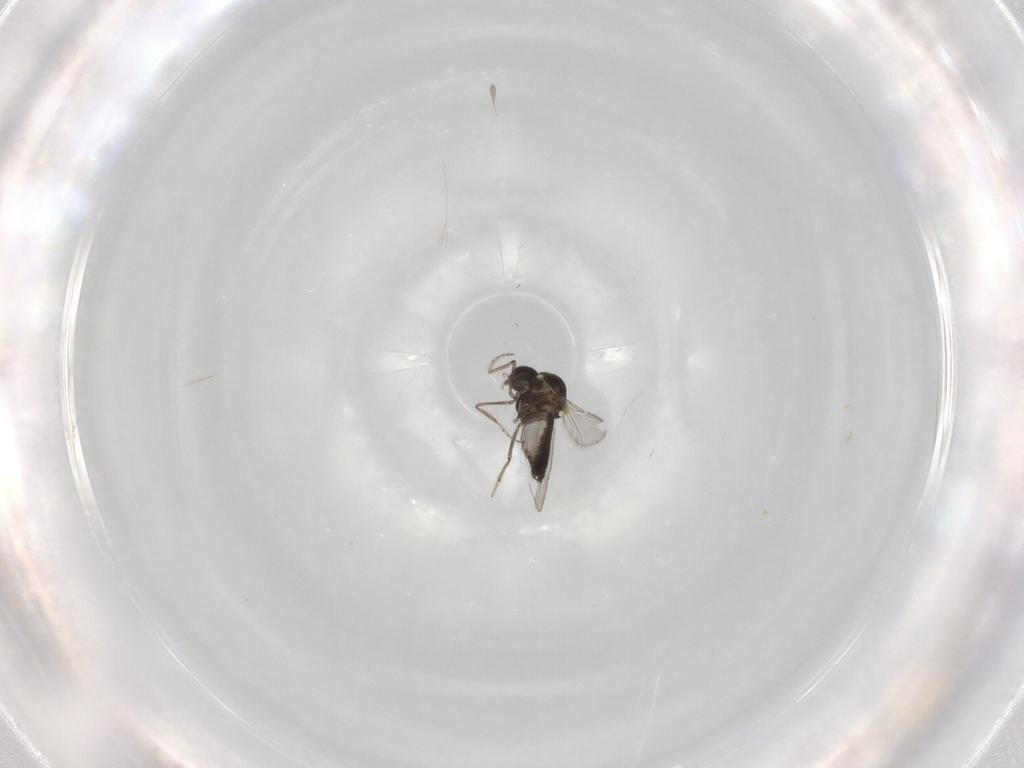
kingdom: Animalia
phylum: Arthropoda
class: Insecta
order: Diptera
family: Ceratopogonidae
